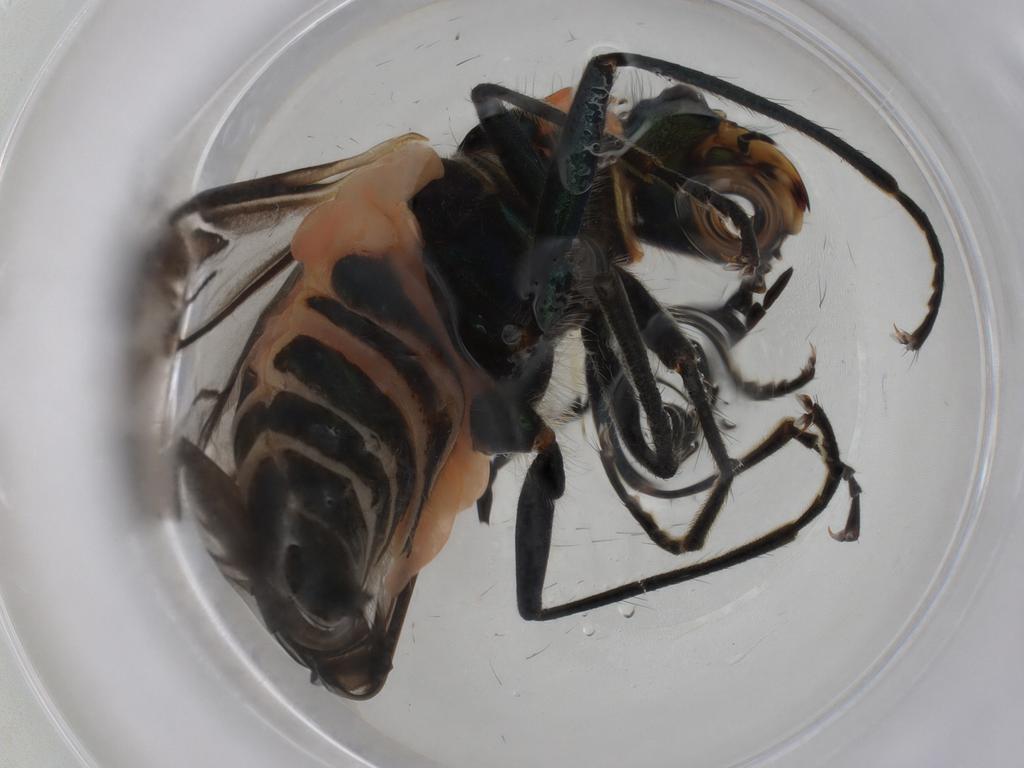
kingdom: Animalia
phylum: Arthropoda
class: Insecta
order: Coleoptera
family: Melyridae
